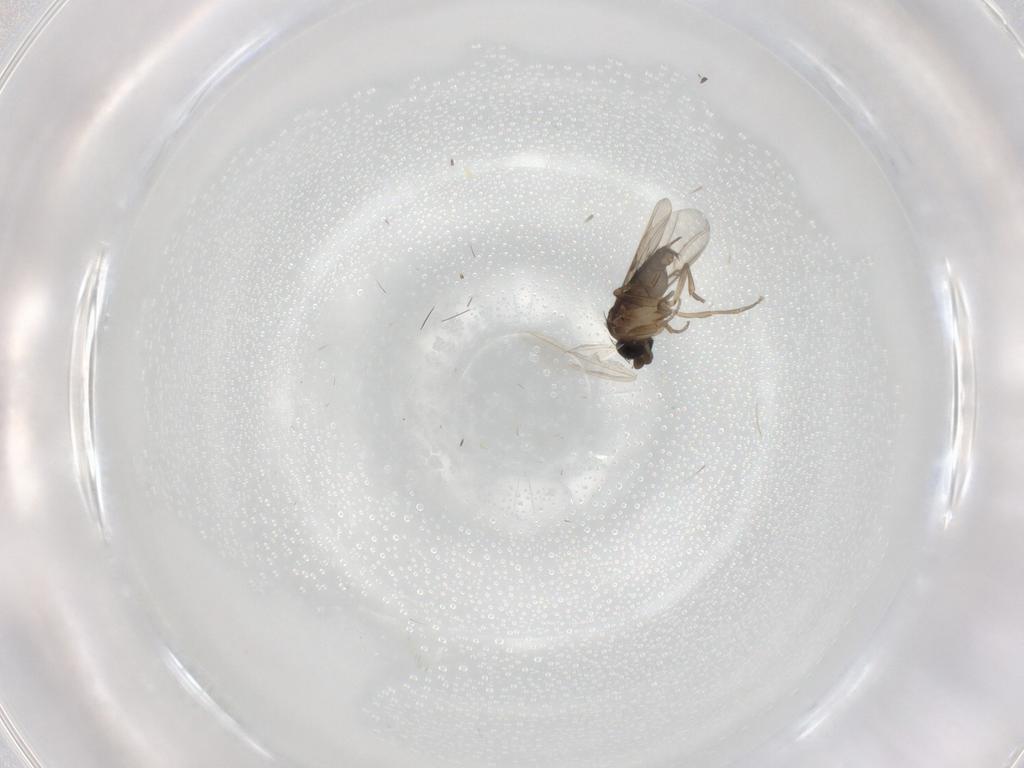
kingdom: Animalia
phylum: Arthropoda
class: Insecta
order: Diptera
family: Phoridae
